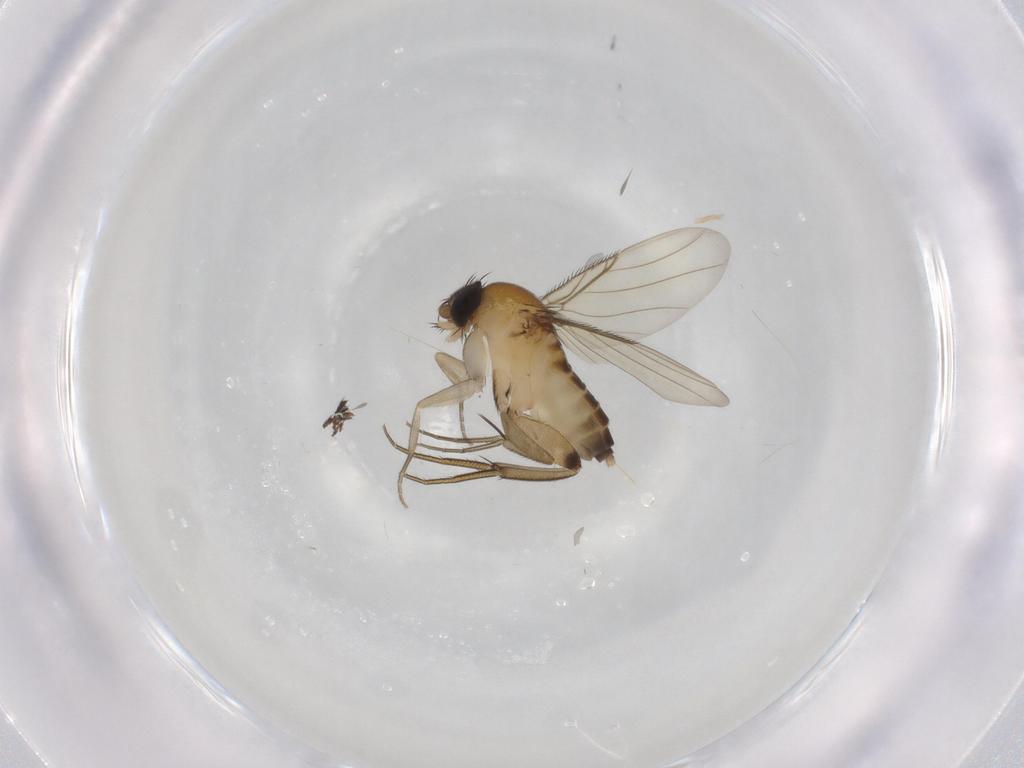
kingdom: Animalia
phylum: Arthropoda
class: Insecta
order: Diptera
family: Phoridae
